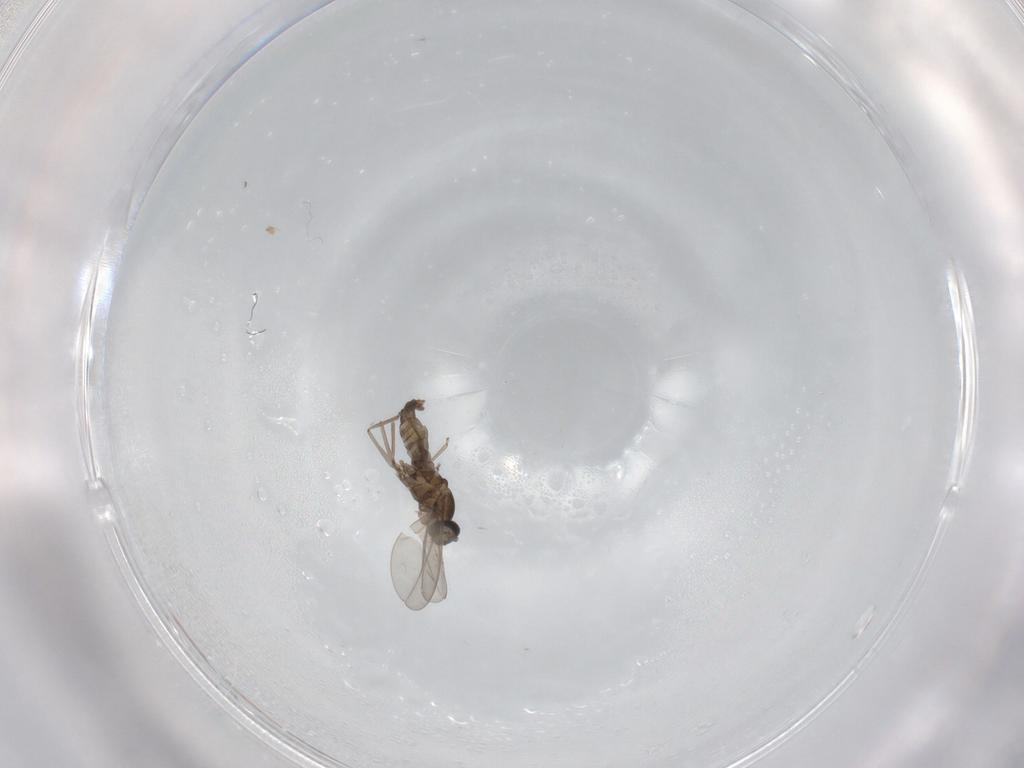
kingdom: Animalia
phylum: Arthropoda
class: Insecta
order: Diptera
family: Cecidomyiidae
